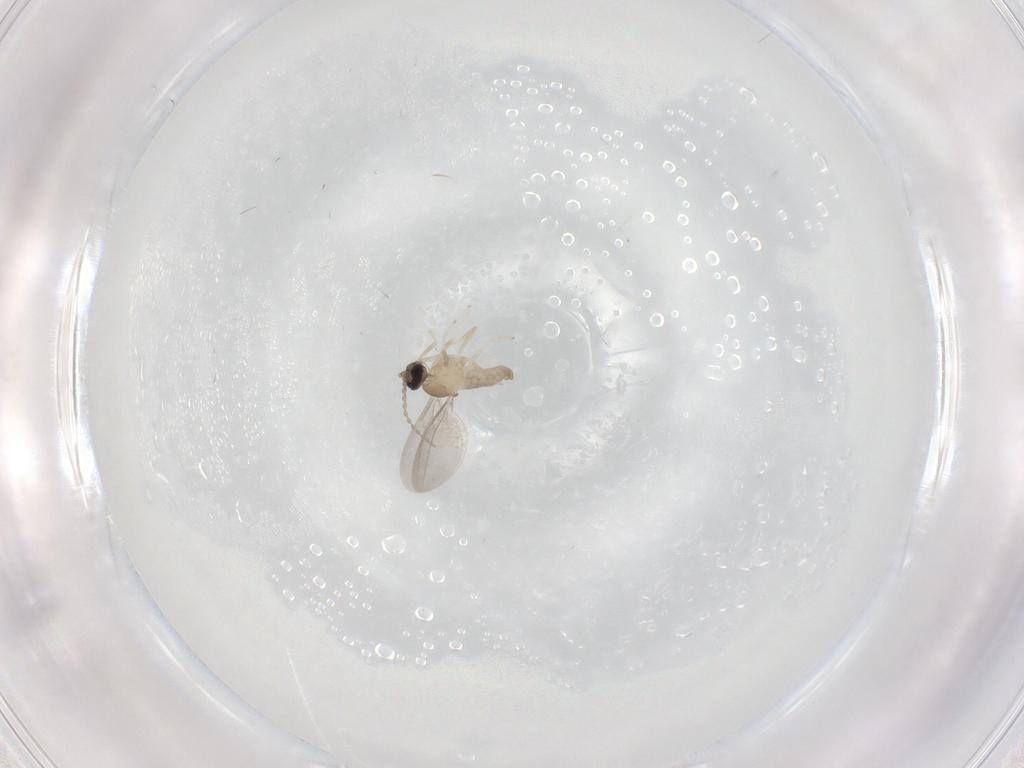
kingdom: Animalia
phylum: Arthropoda
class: Insecta
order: Diptera
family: Cecidomyiidae
